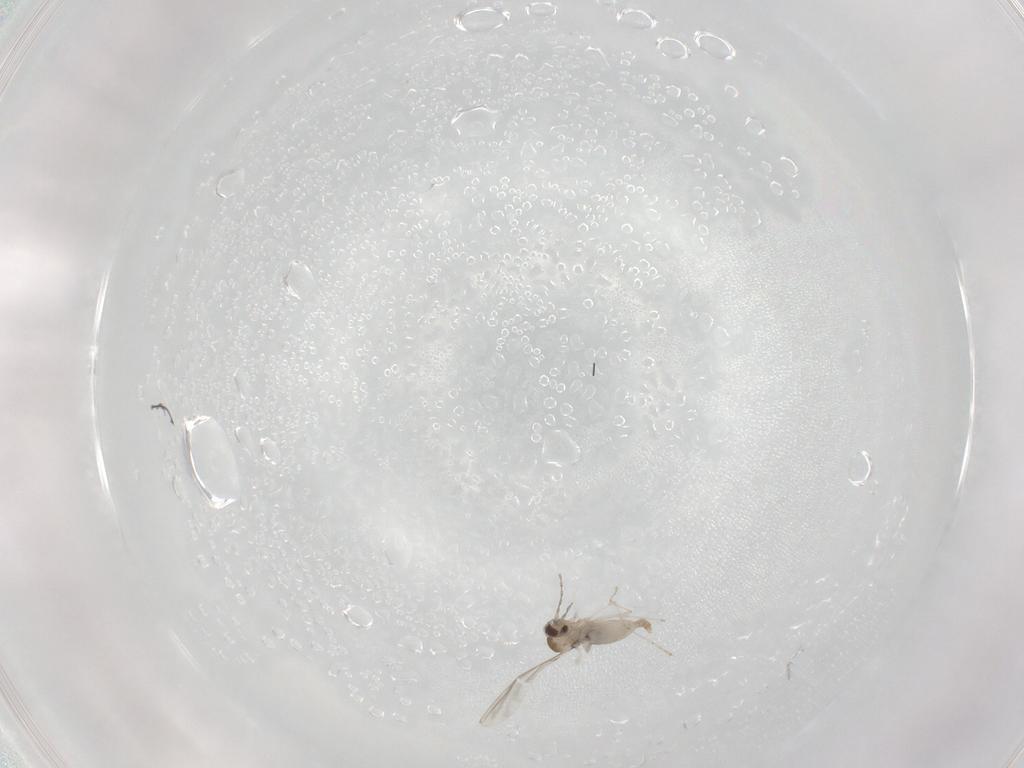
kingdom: Animalia
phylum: Arthropoda
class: Insecta
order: Diptera
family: Cecidomyiidae
